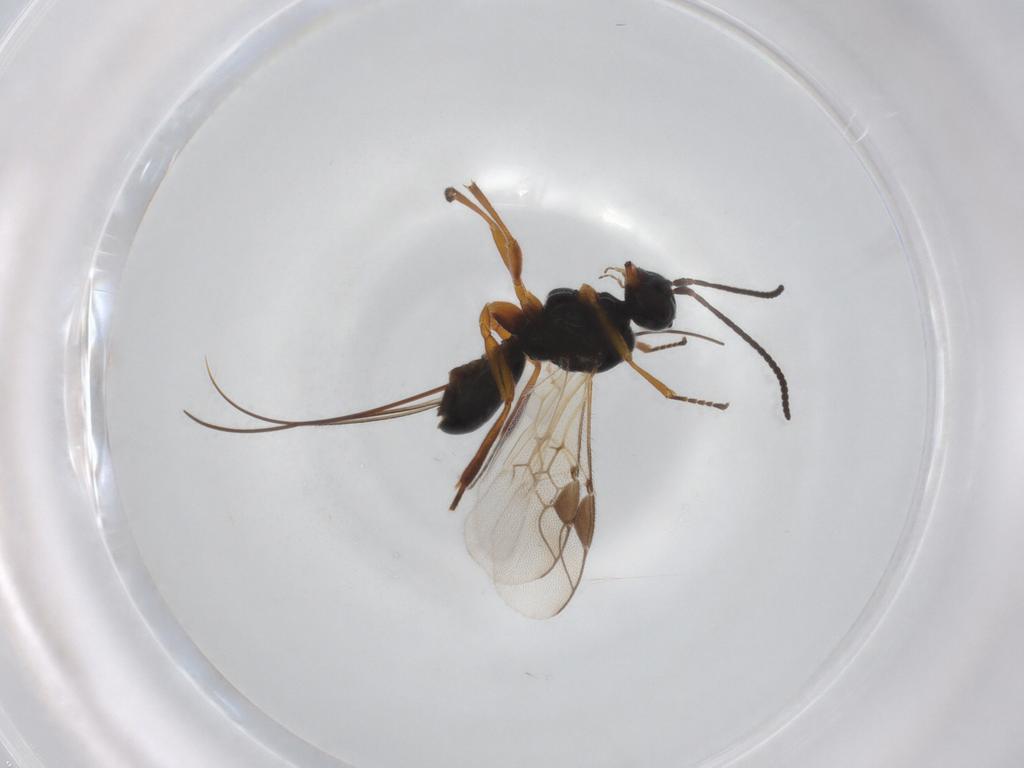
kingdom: Animalia
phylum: Arthropoda
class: Insecta
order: Hymenoptera
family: Braconidae
